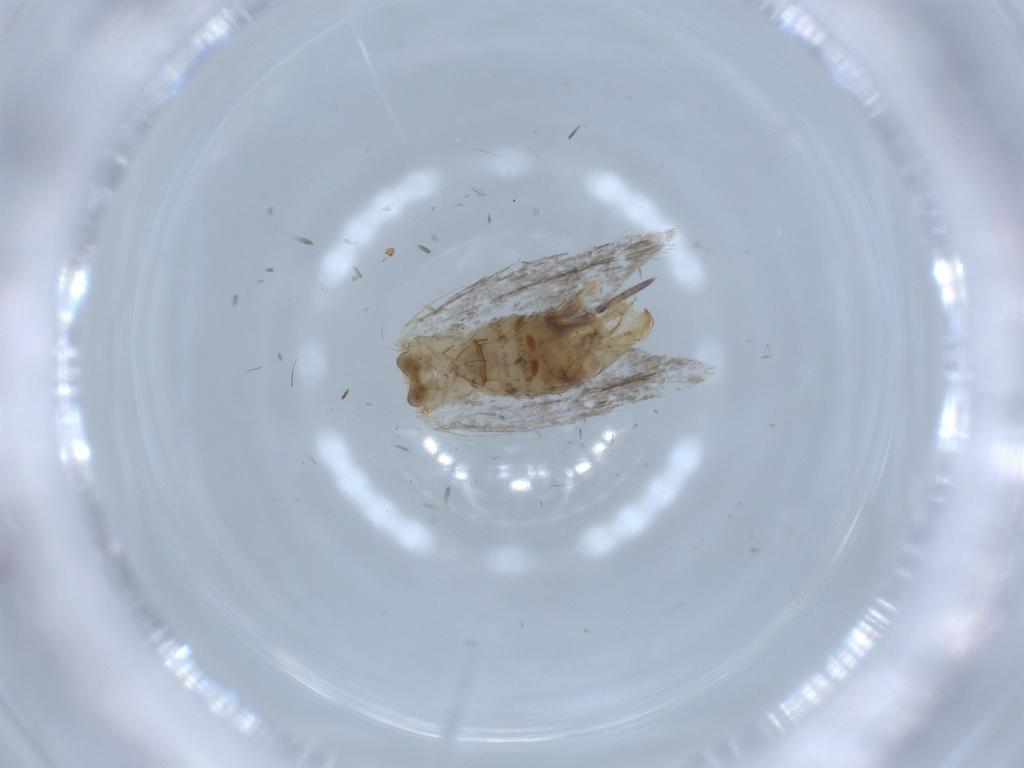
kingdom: Animalia
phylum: Arthropoda
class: Insecta
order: Lepidoptera
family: Tineidae
